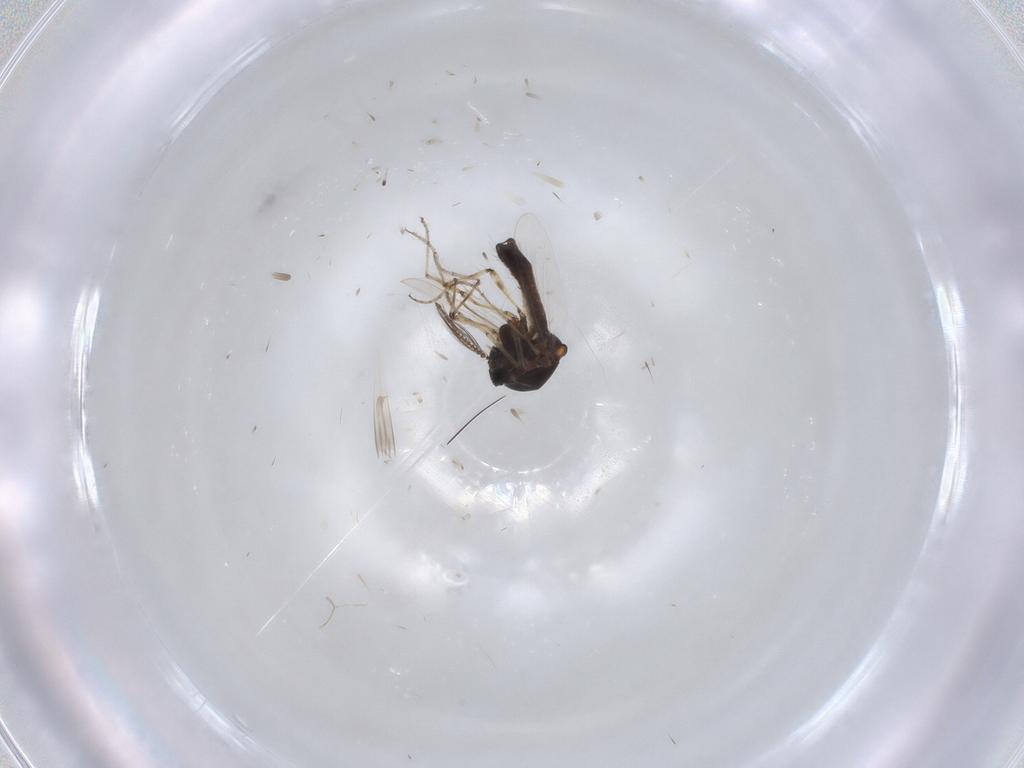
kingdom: Animalia
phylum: Arthropoda
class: Insecta
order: Diptera
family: Ceratopogonidae
